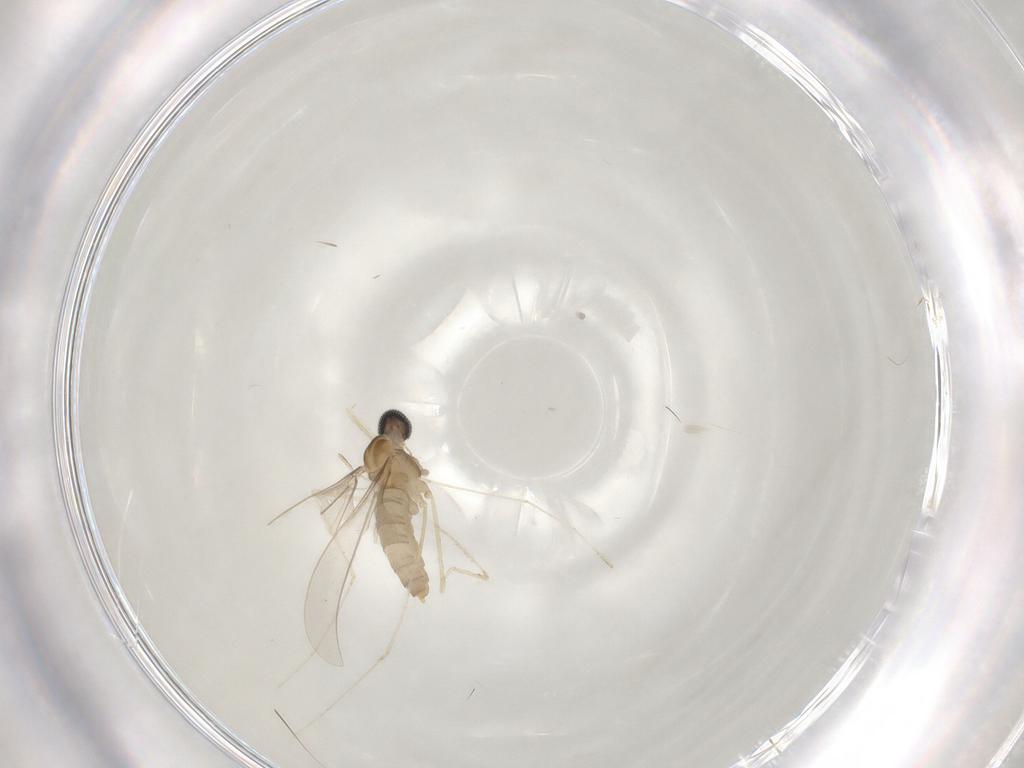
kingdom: Animalia
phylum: Arthropoda
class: Insecta
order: Diptera
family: Cecidomyiidae
